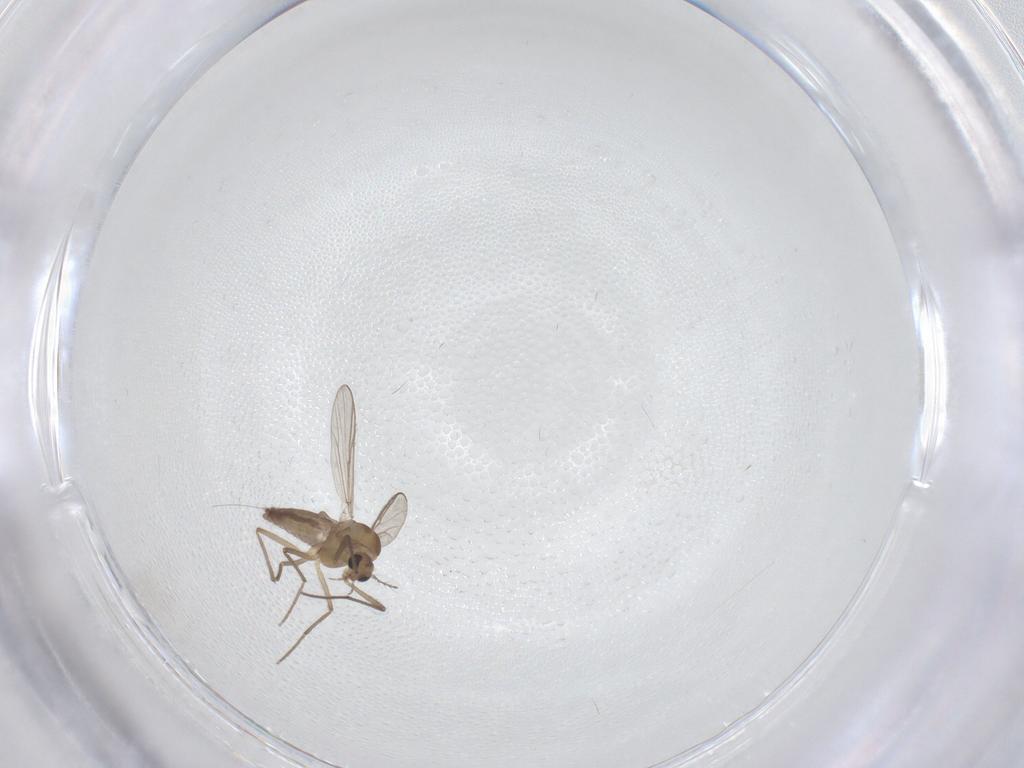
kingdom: Animalia
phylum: Arthropoda
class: Insecta
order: Diptera
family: Chironomidae
